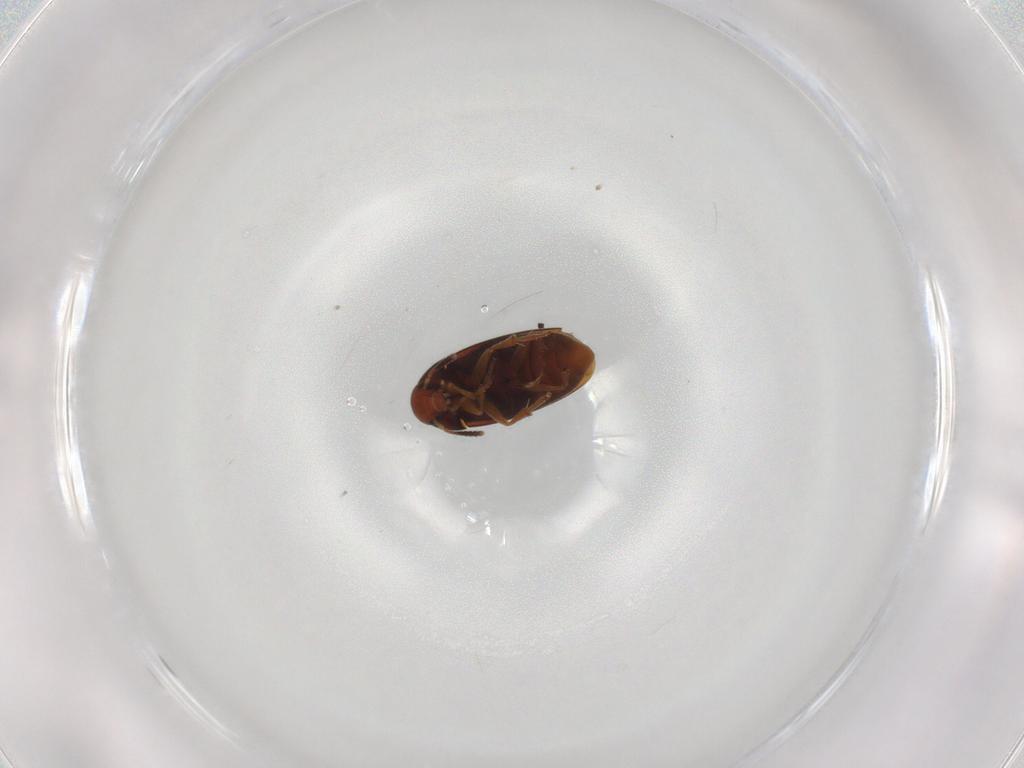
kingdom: Animalia
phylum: Arthropoda
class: Insecta
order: Coleoptera
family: Scraptiidae
